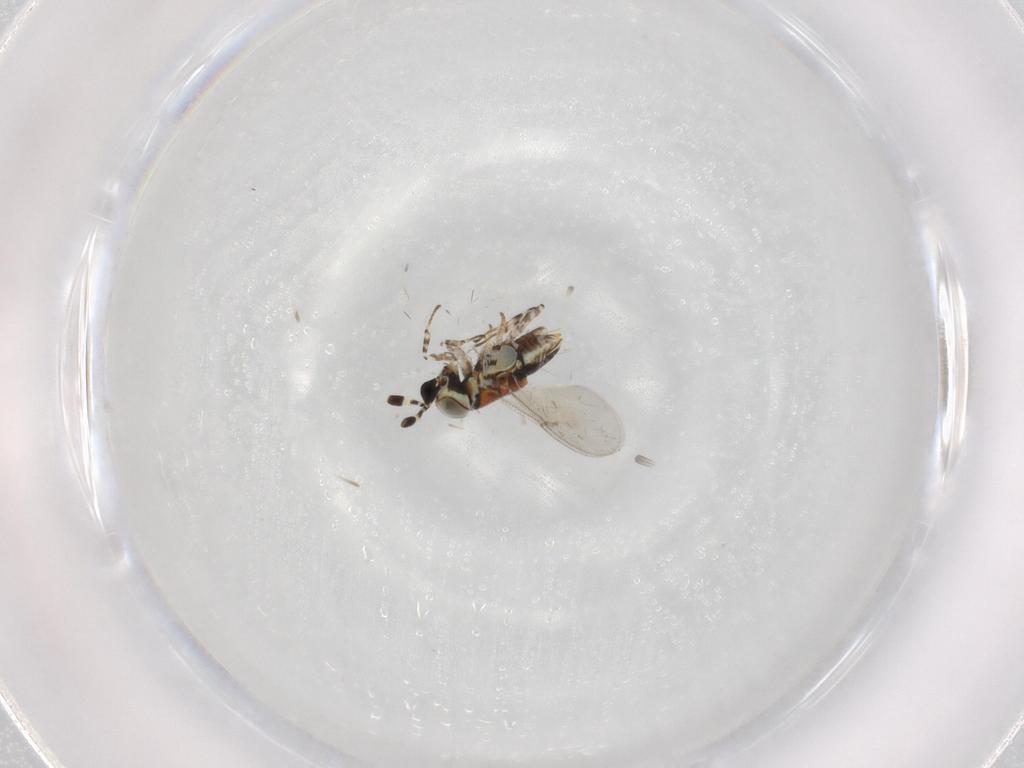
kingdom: Animalia
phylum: Arthropoda
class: Insecta
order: Hymenoptera
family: Encyrtidae
